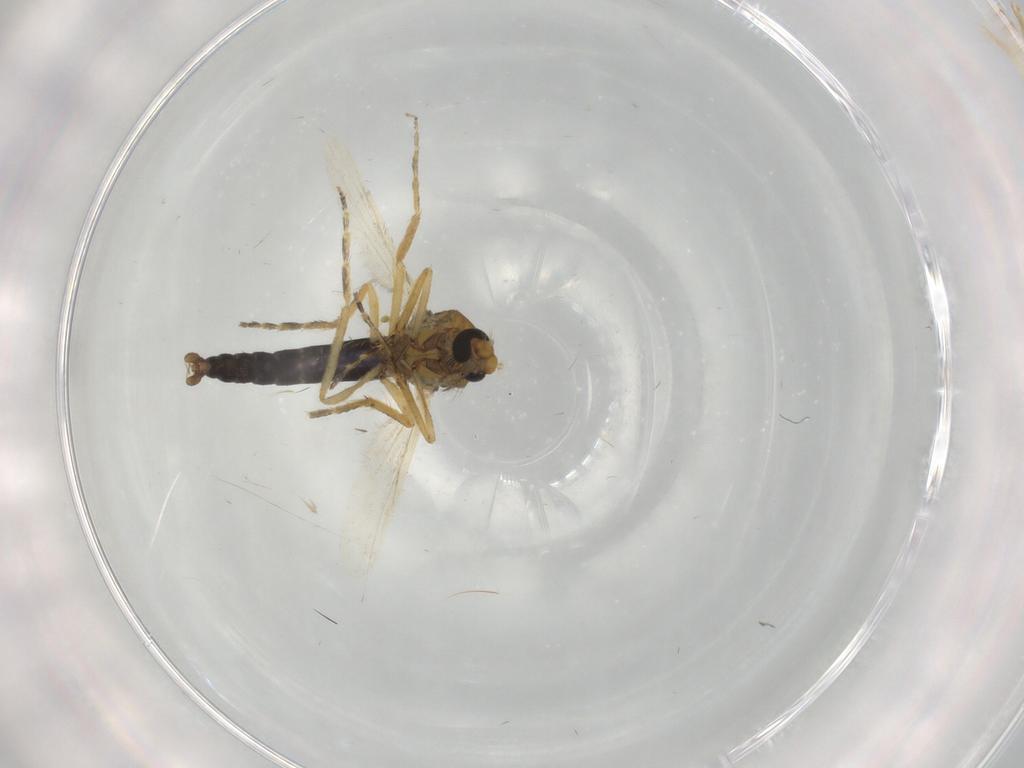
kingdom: Animalia
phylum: Arthropoda
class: Insecta
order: Diptera
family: Ceratopogonidae
